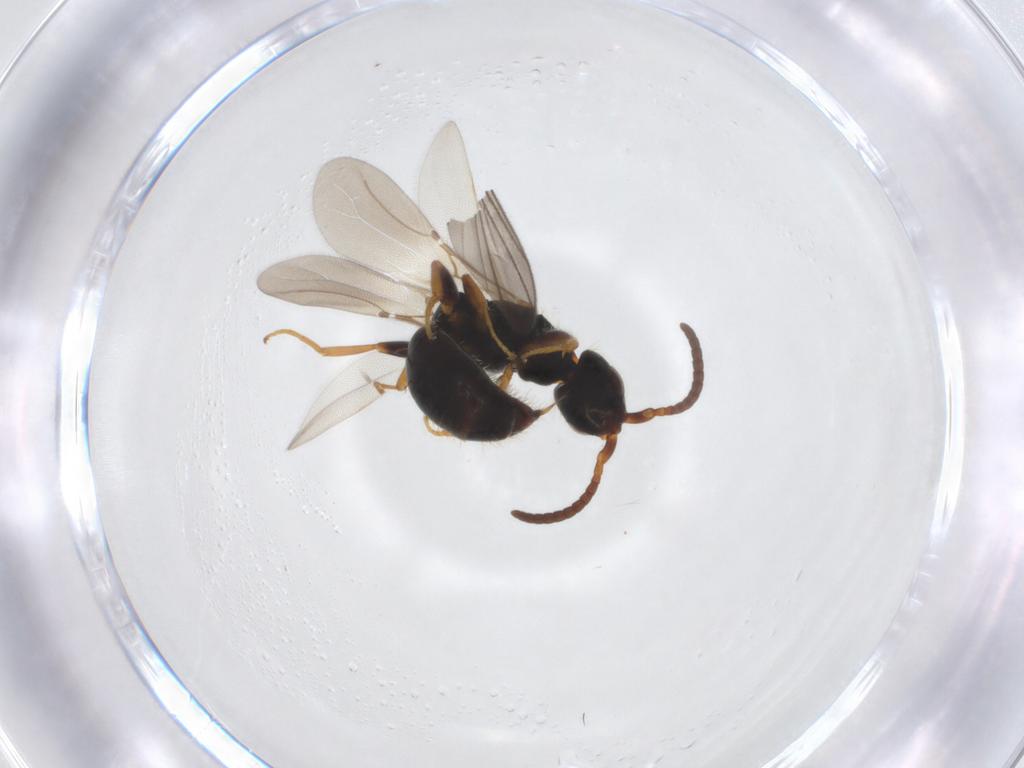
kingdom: Animalia
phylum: Arthropoda
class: Insecta
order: Hymenoptera
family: Bethylidae
